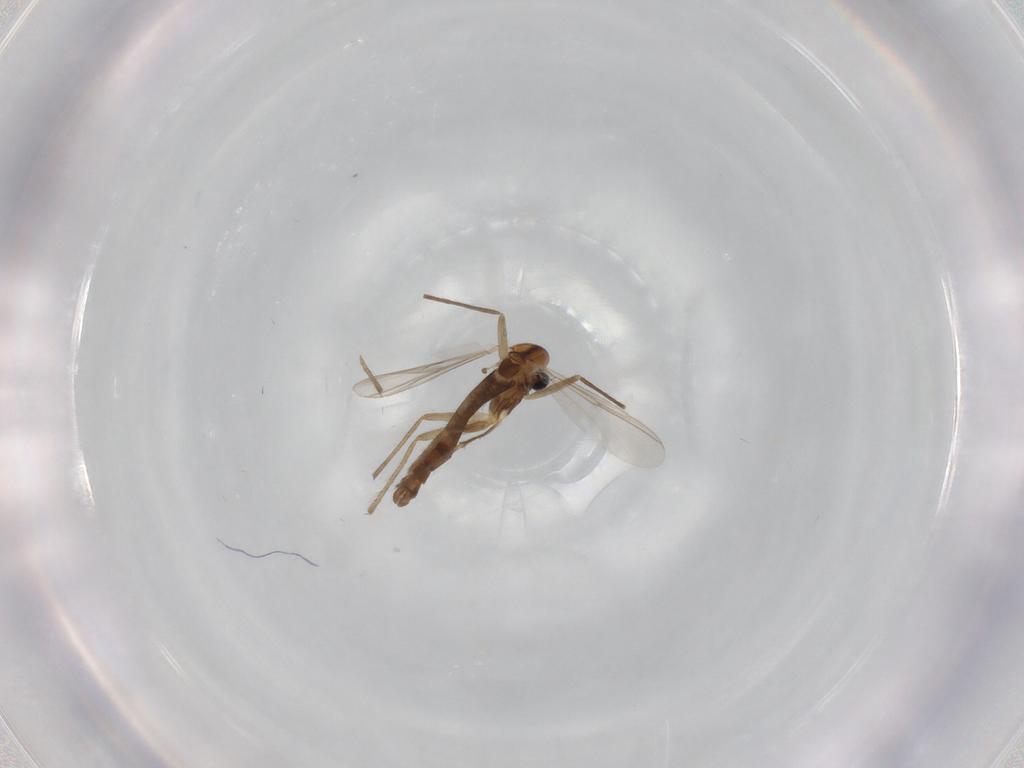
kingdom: Animalia
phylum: Arthropoda
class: Insecta
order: Diptera
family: Chironomidae
